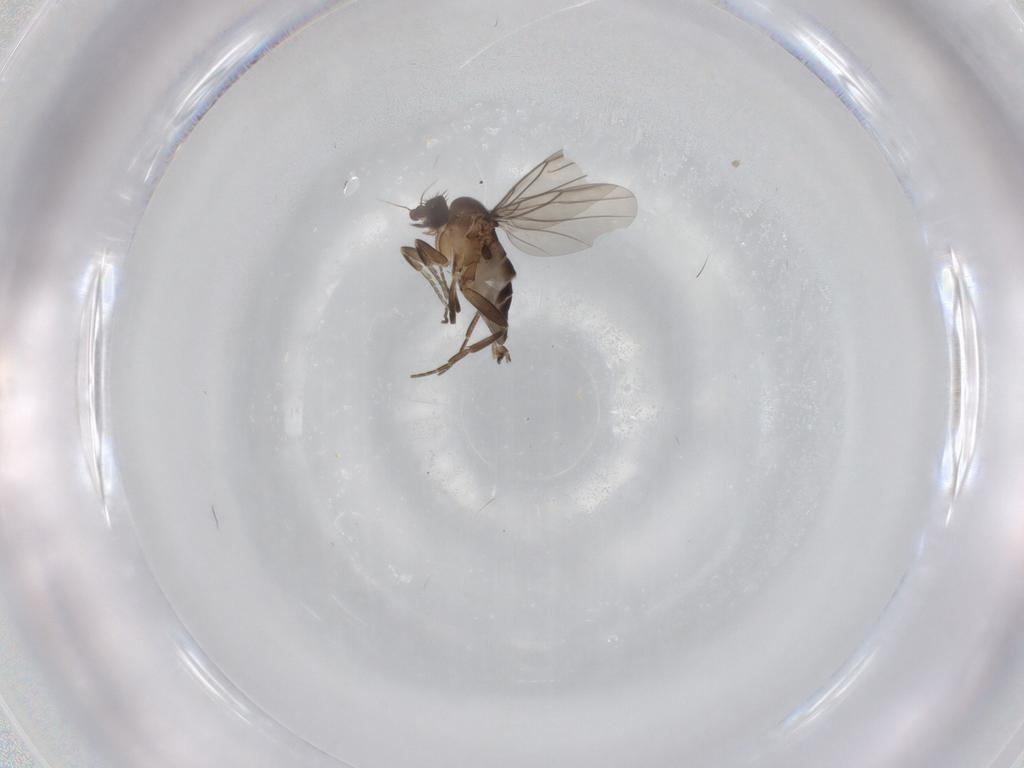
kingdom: Animalia
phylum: Arthropoda
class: Insecta
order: Diptera
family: Phoridae
